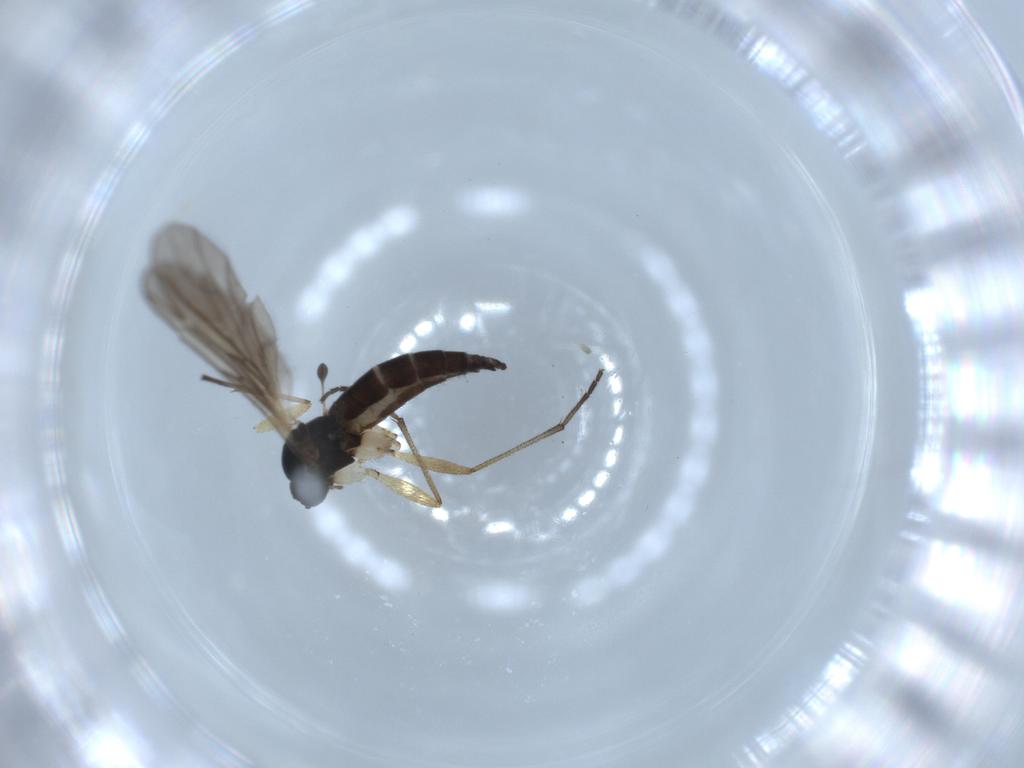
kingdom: Animalia
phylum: Arthropoda
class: Insecta
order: Diptera
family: Sciaridae
